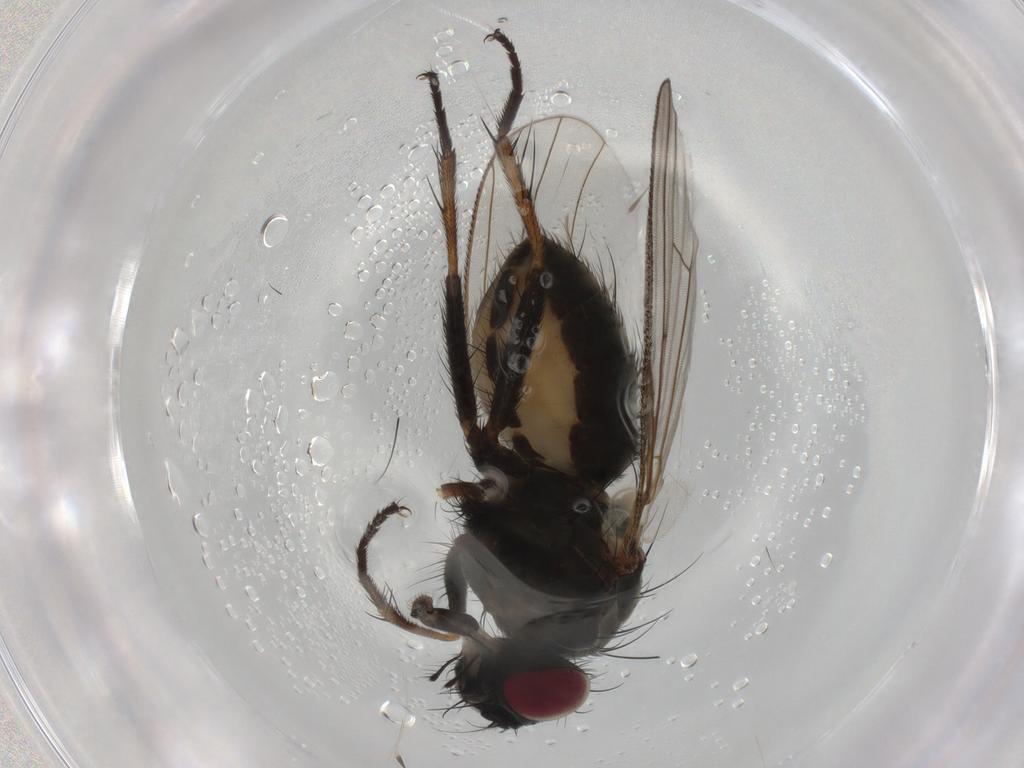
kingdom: Animalia
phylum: Arthropoda
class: Insecta
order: Diptera
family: Muscidae
